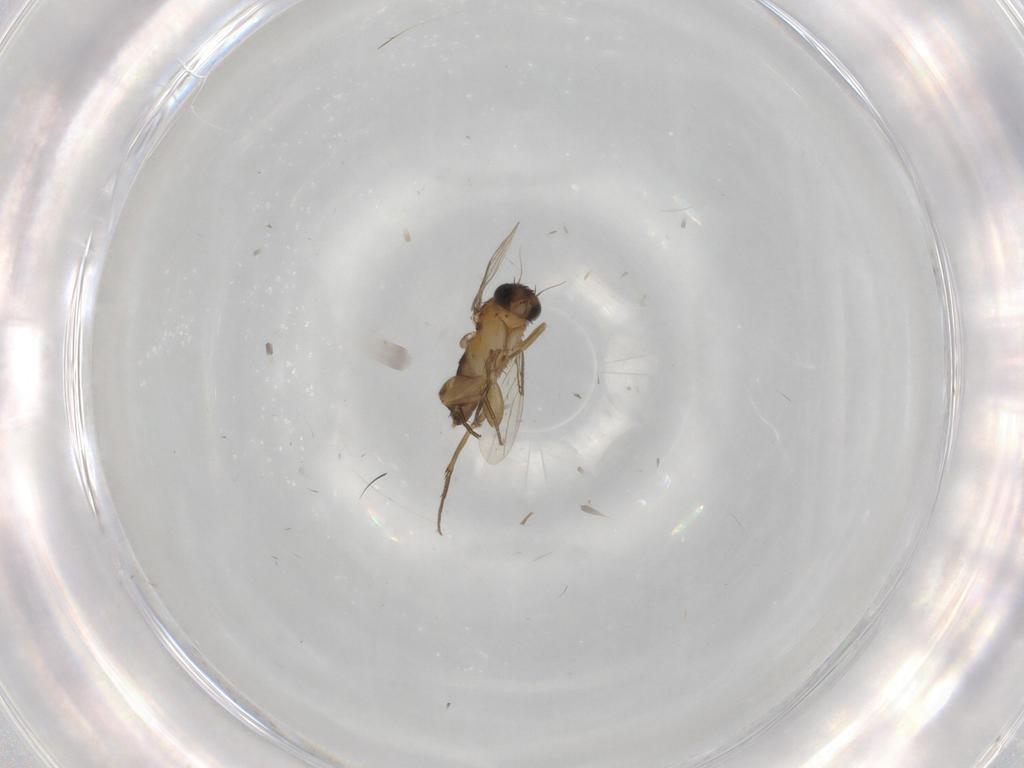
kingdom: Animalia
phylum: Arthropoda
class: Insecta
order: Diptera
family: Phoridae
